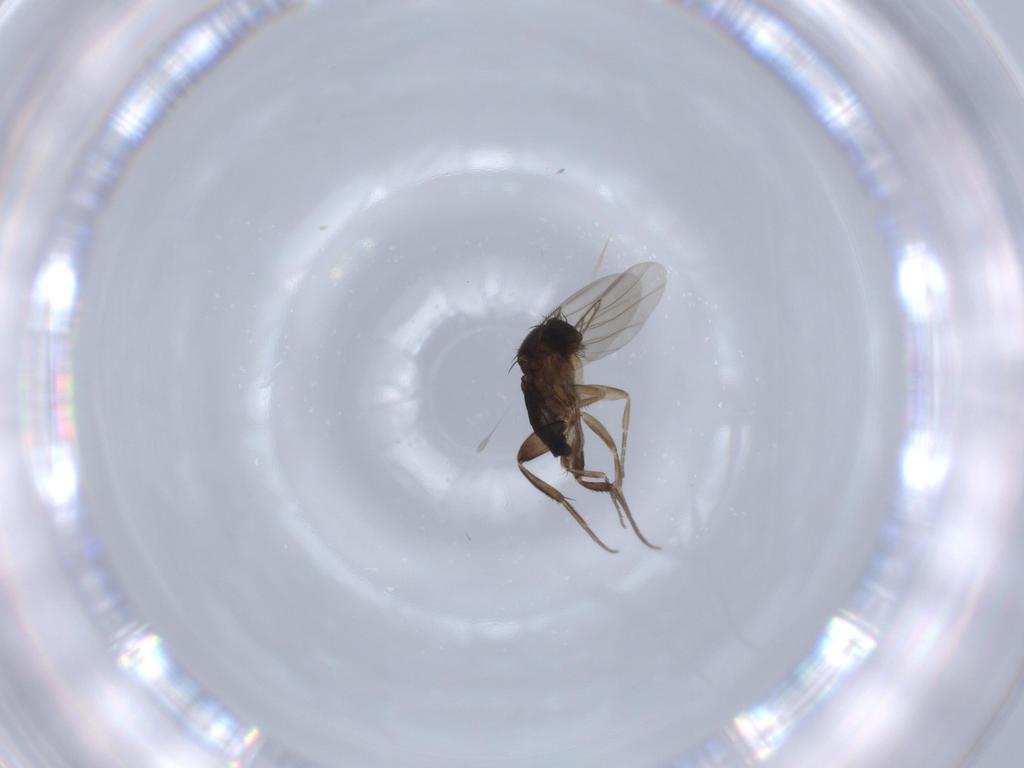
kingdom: Animalia
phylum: Arthropoda
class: Insecta
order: Diptera
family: Phoridae
